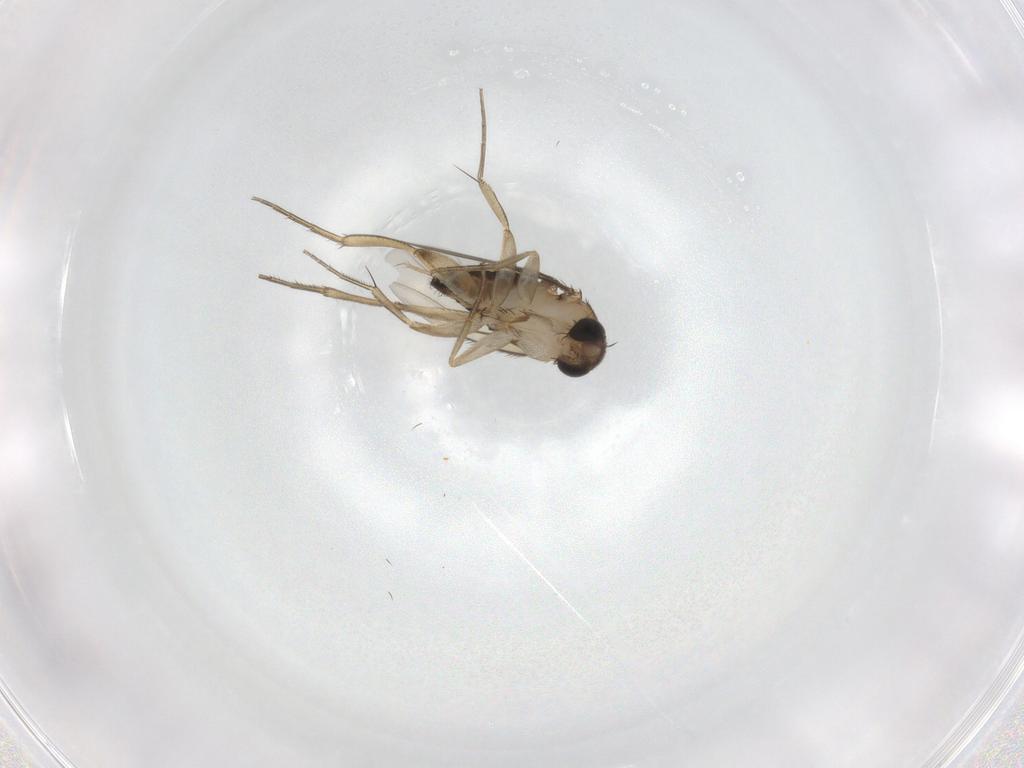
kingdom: Animalia
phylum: Arthropoda
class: Insecta
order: Diptera
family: Phoridae
